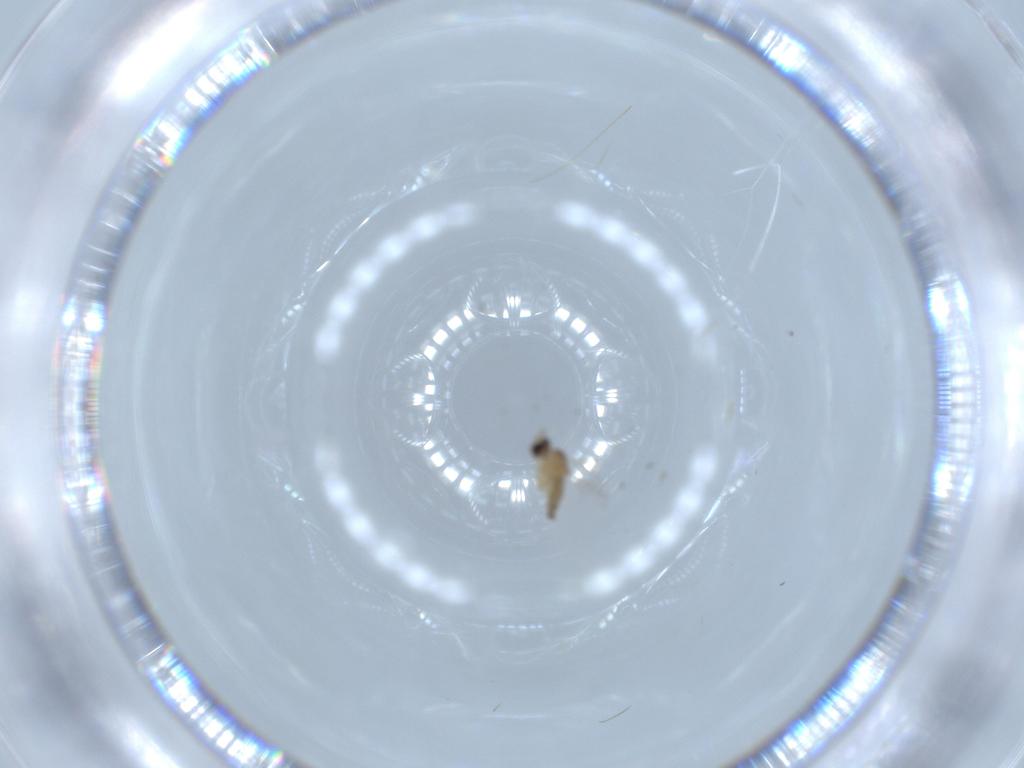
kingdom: Animalia
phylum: Arthropoda
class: Insecta
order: Diptera
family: Cecidomyiidae
